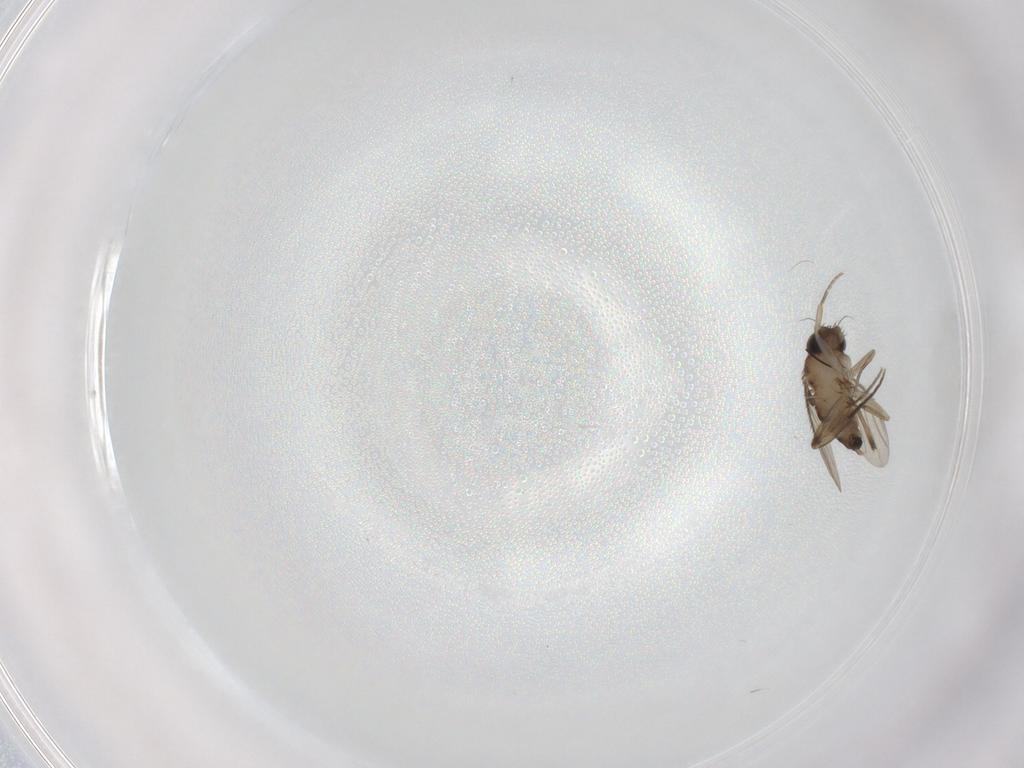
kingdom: Animalia
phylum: Arthropoda
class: Insecta
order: Diptera
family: Phoridae
